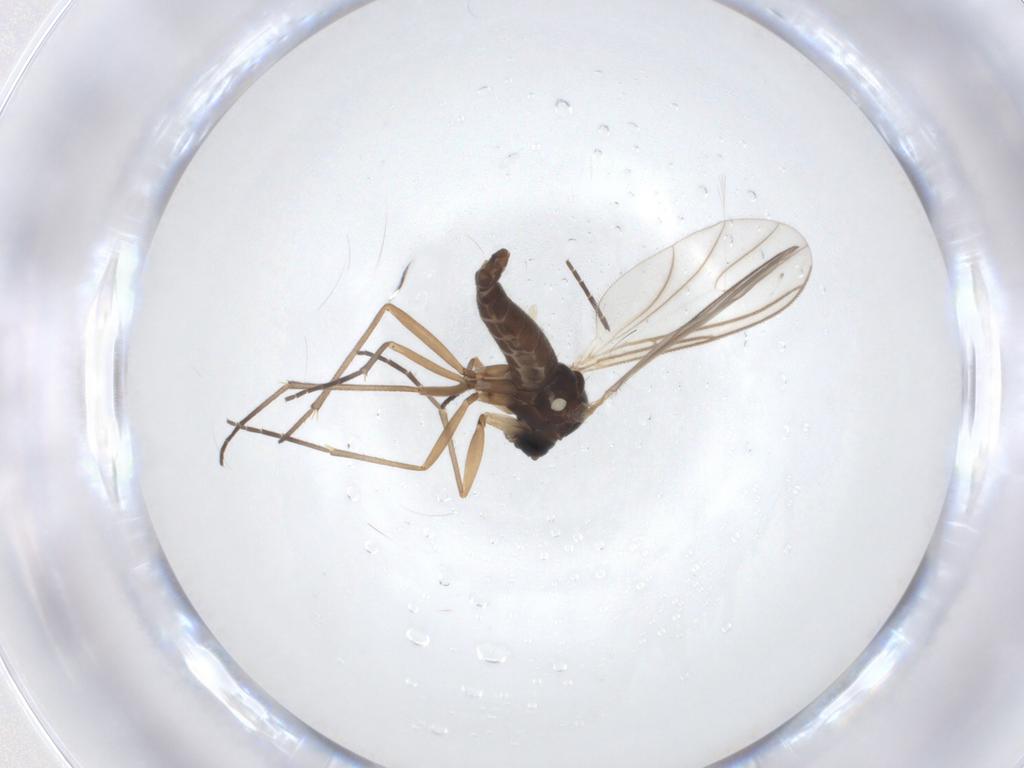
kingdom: Animalia
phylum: Arthropoda
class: Insecta
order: Diptera
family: Sciaridae
